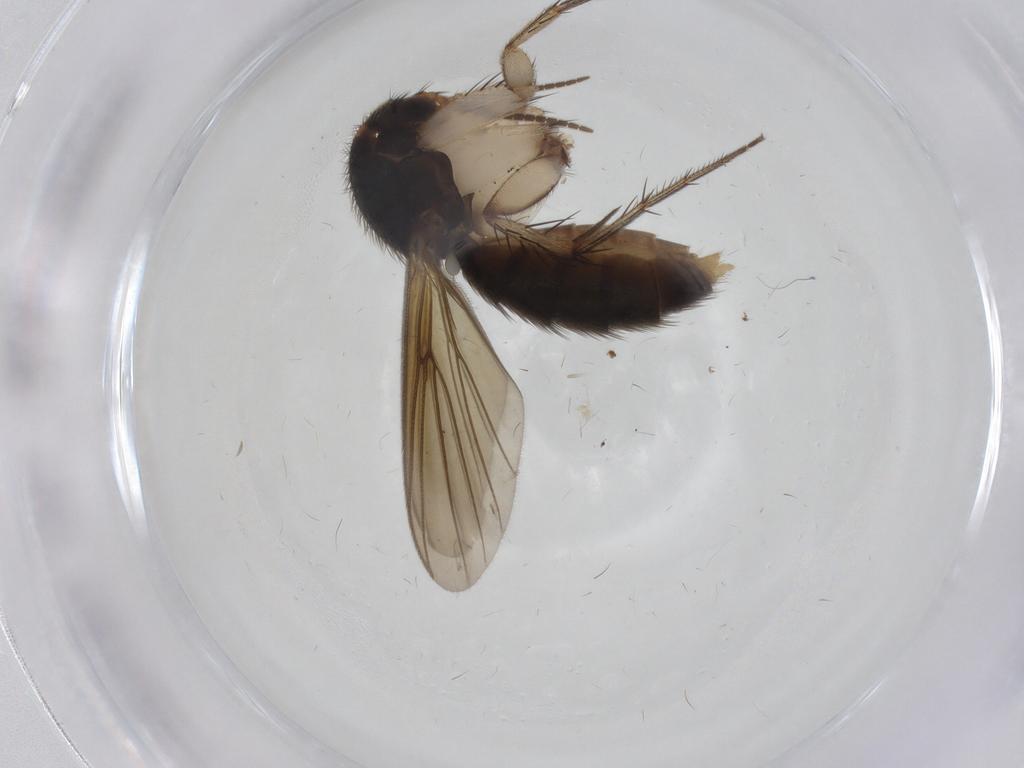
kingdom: Animalia
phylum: Arthropoda
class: Insecta
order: Diptera
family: Mycetophilidae
